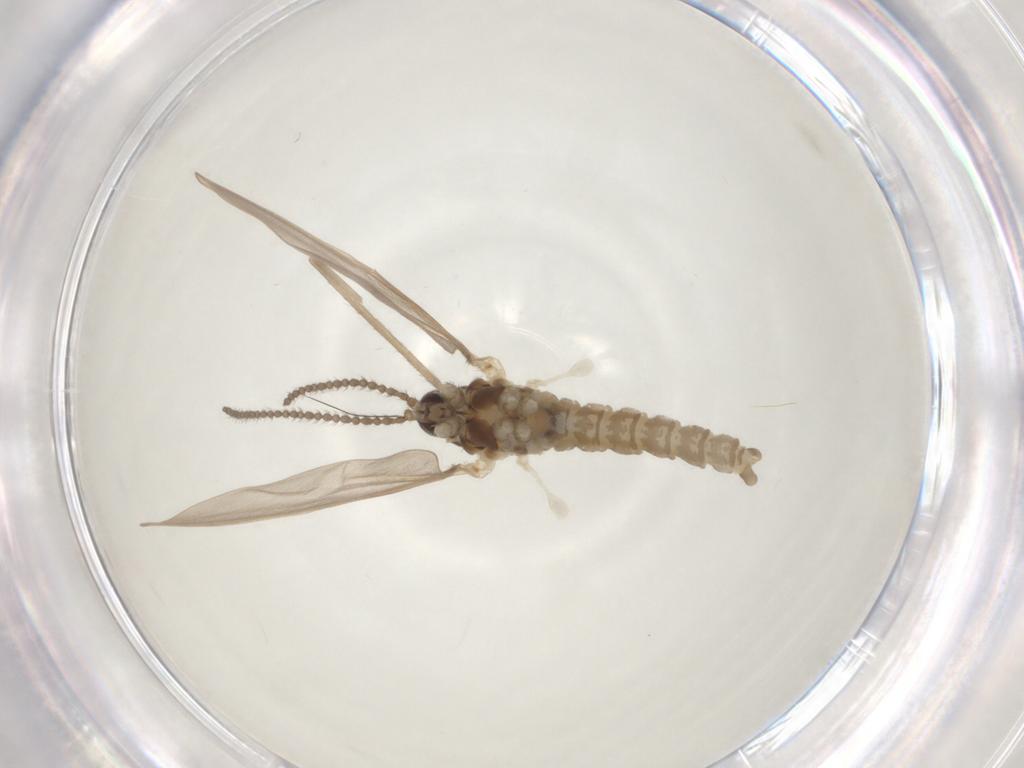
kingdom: Animalia
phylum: Arthropoda
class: Insecta
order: Diptera
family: Cecidomyiidae
